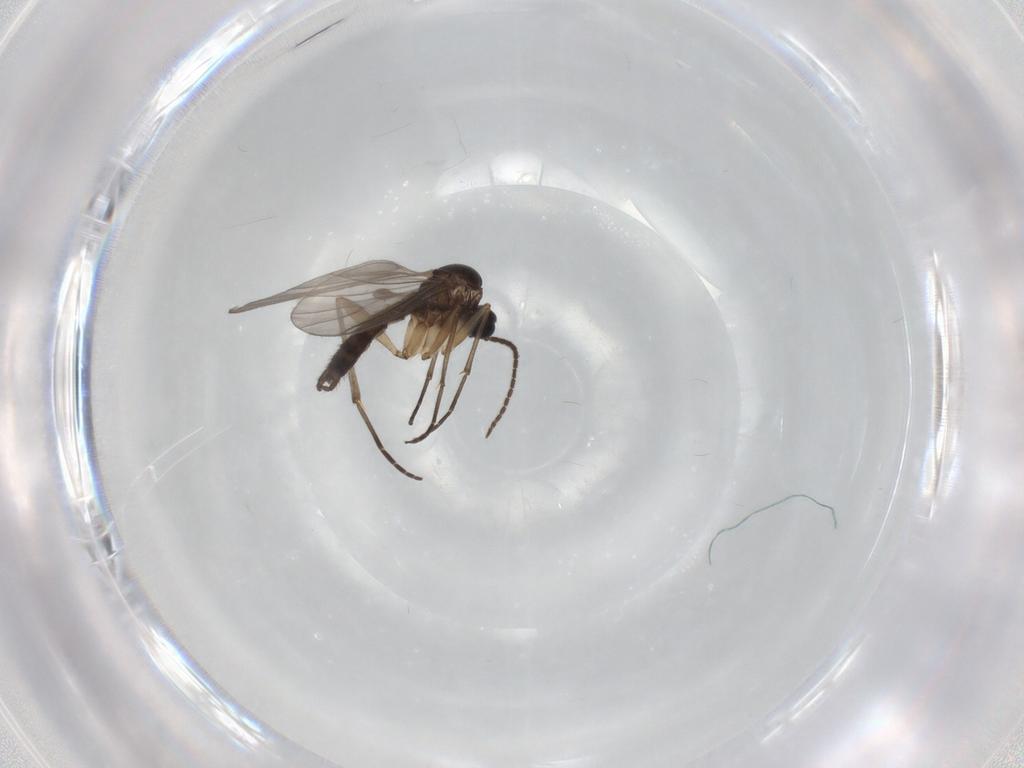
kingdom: Animalia
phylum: Arthropoda
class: Insecta
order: Diptera
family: Sciaridae
